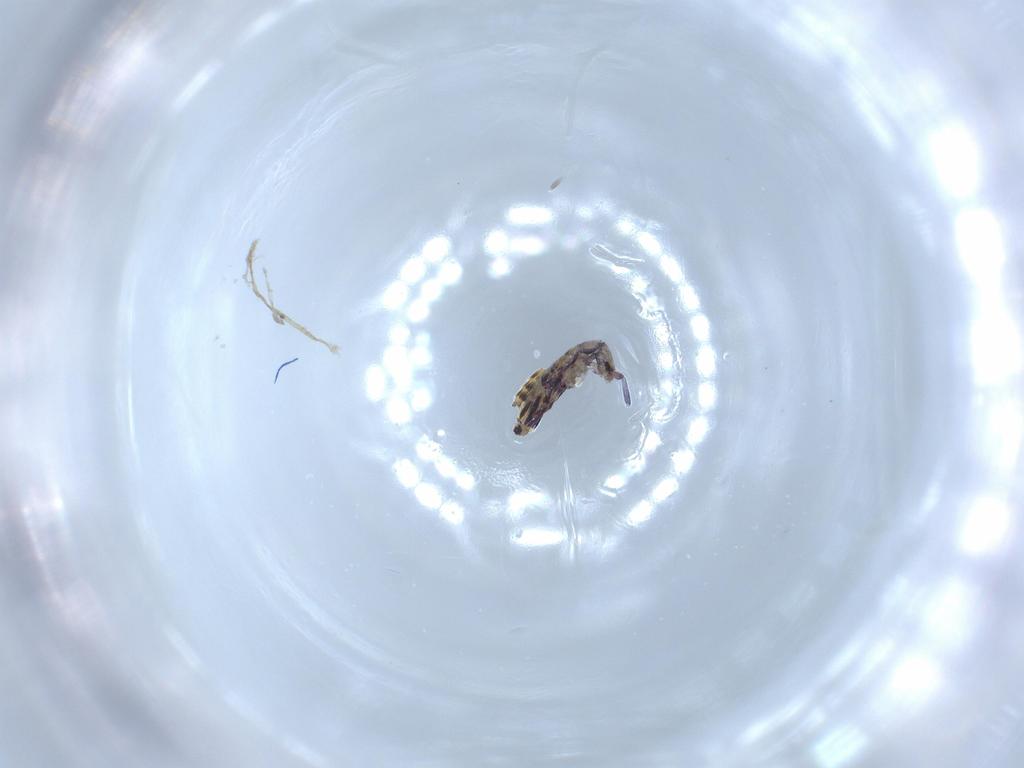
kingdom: Animalia
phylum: Arthropoda
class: Collembola
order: Entomobryomorpha
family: Entomobryidae
